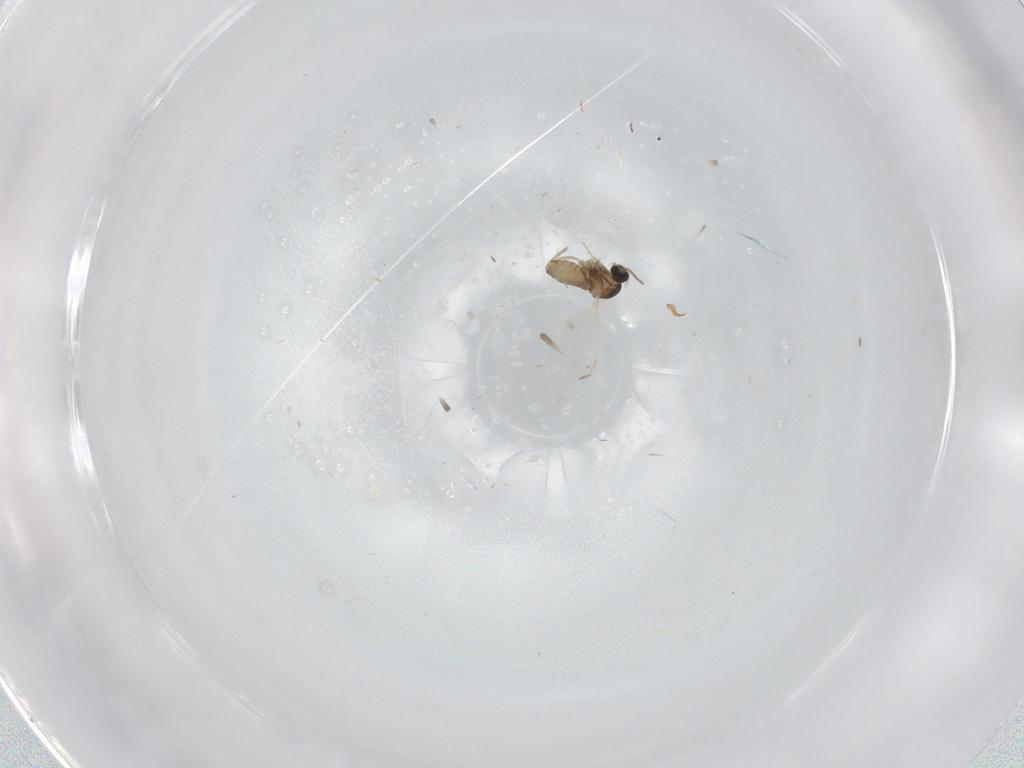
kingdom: Animalia
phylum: Arthropoda
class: Insecta
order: Diptera
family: Cecidomyiidae
